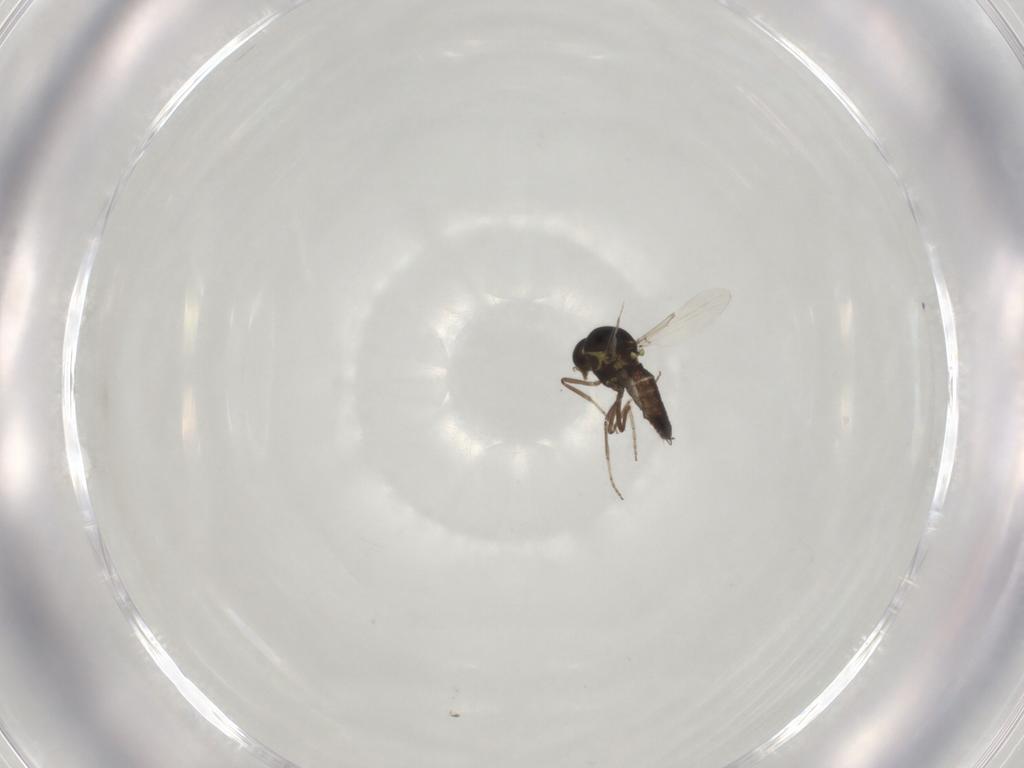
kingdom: Animalia
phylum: Arthropoda
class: Insecta
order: Diptera
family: Ceratopogonidae
